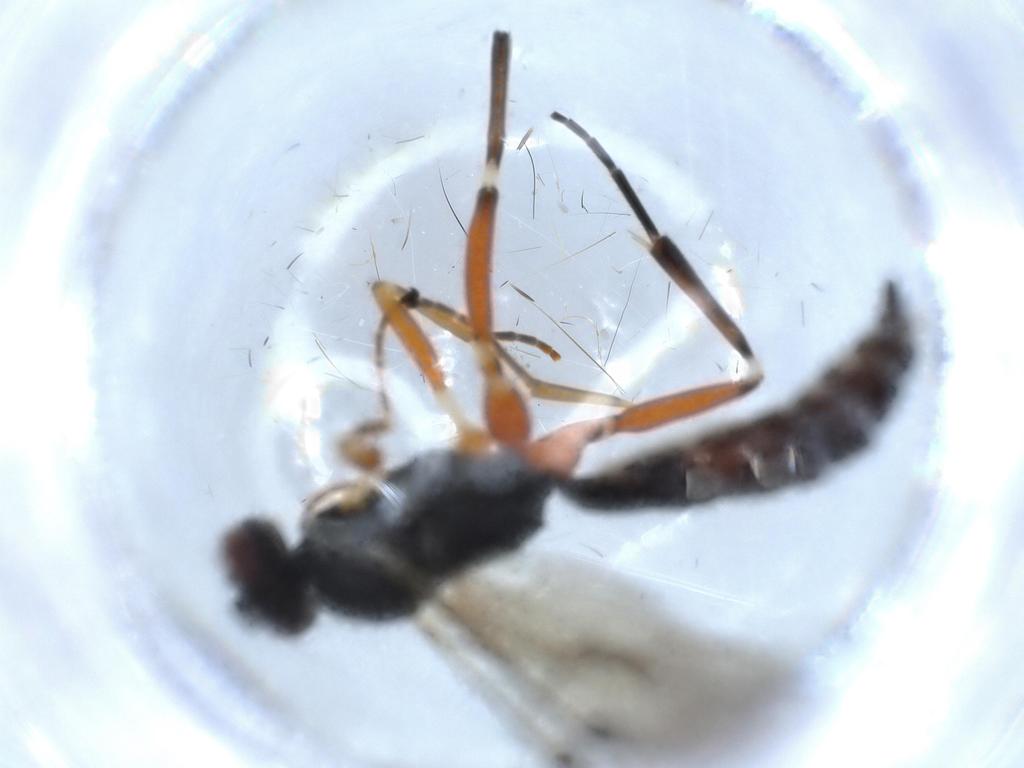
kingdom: Animalia
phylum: Arthropoda
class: Insecta
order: Hymenoptera
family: Ichneumonidae
